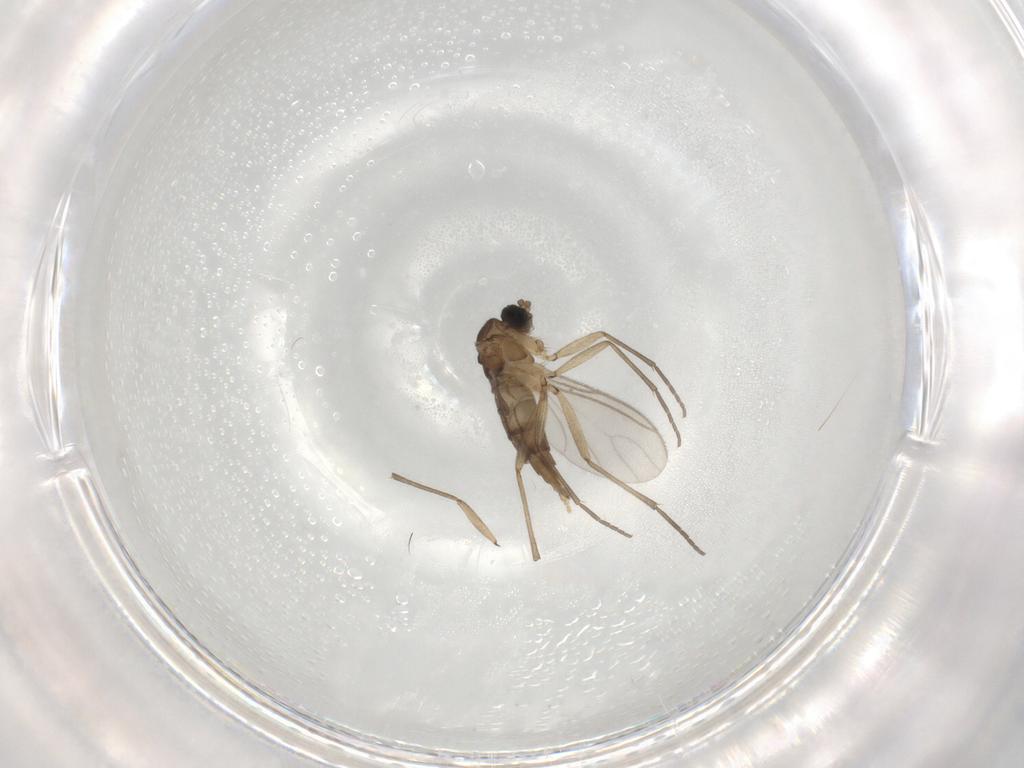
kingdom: Animalia
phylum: Arthropoda
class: Insecta
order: Diptera
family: Sciaridae
